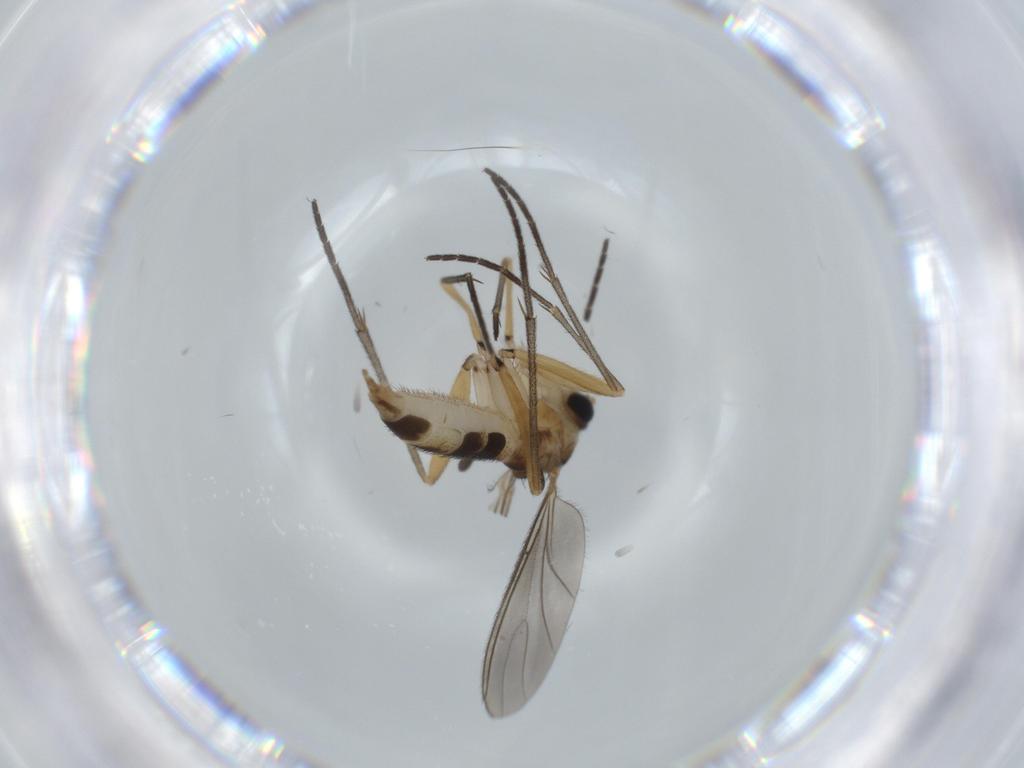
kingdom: Animalia
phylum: Arthropoda
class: Insecta
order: Diptera
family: Sciaridae
